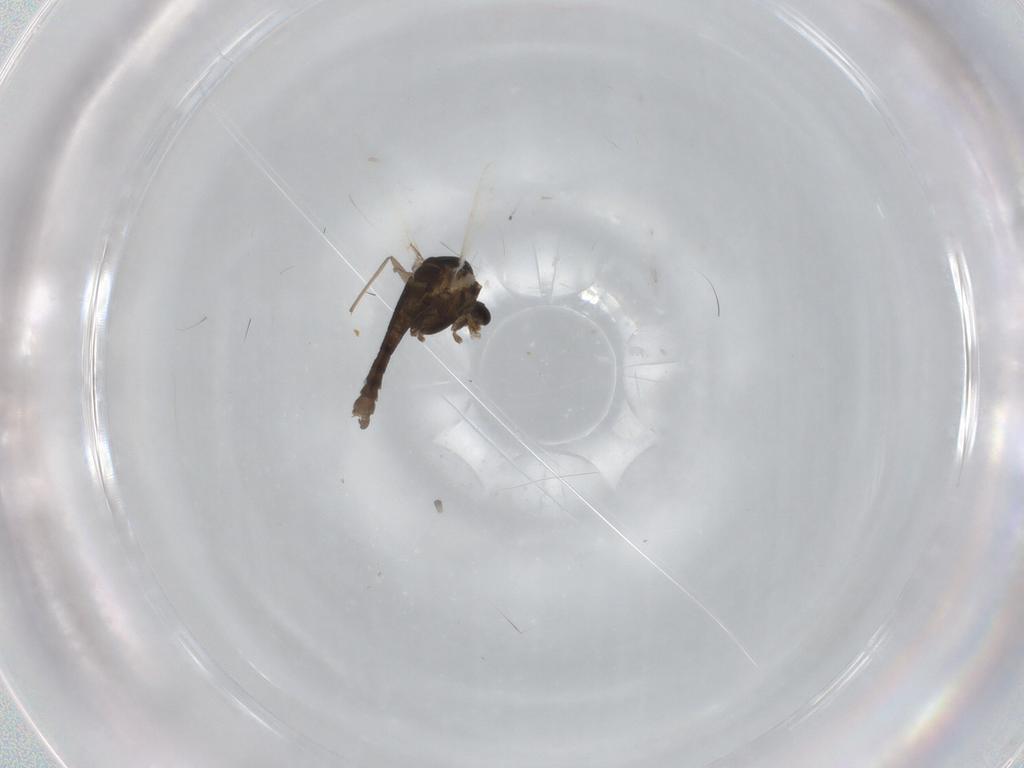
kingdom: Animalia
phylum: Arthropoda
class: Insecta
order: Diptera
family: Chironomidae
